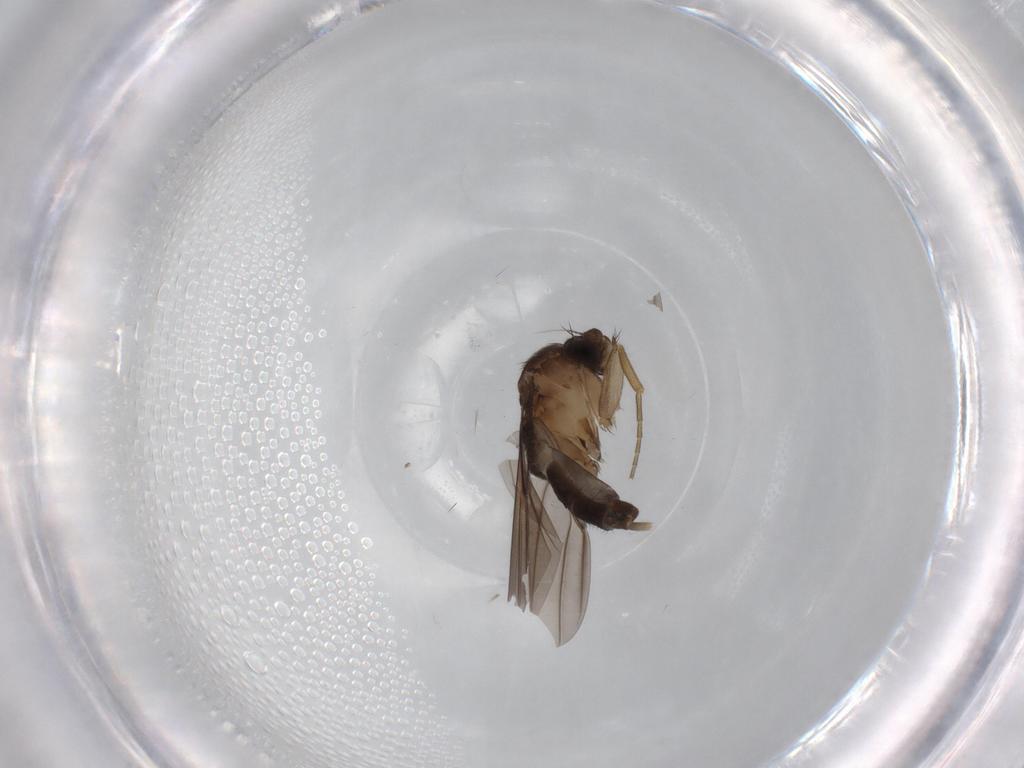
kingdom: Animalia
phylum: Arthropoda
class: Insecta
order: Diptera
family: Phoridae
